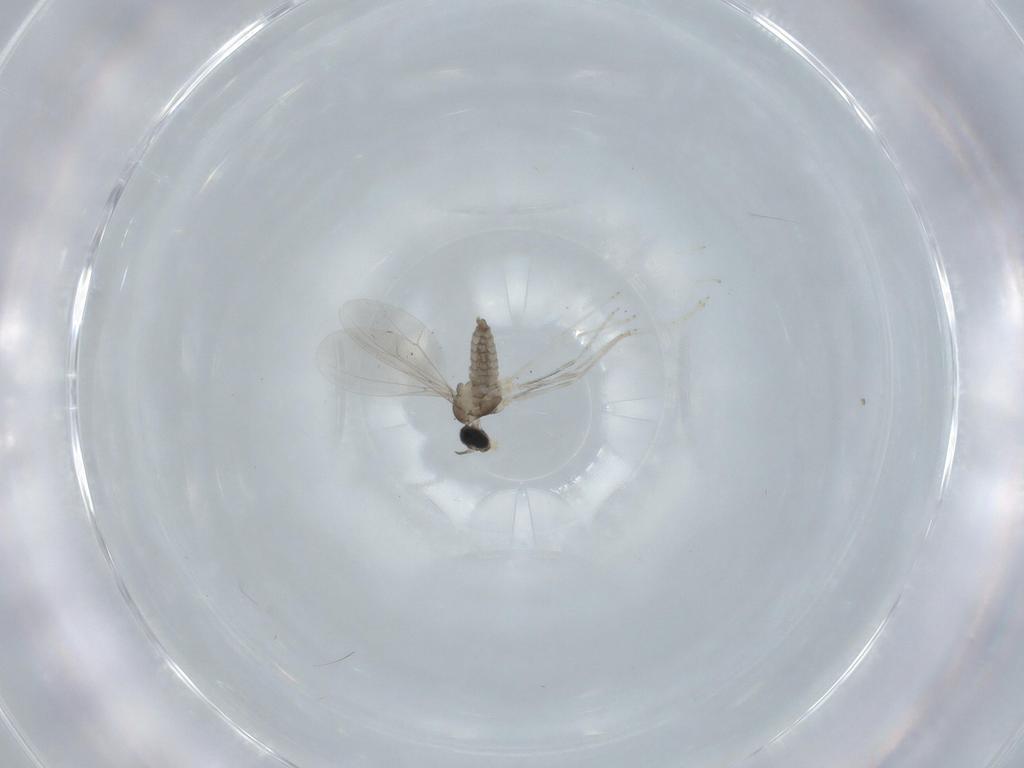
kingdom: Animalia
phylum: Arthropoda
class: Insecta
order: Diptera
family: Cecidomyiidae
